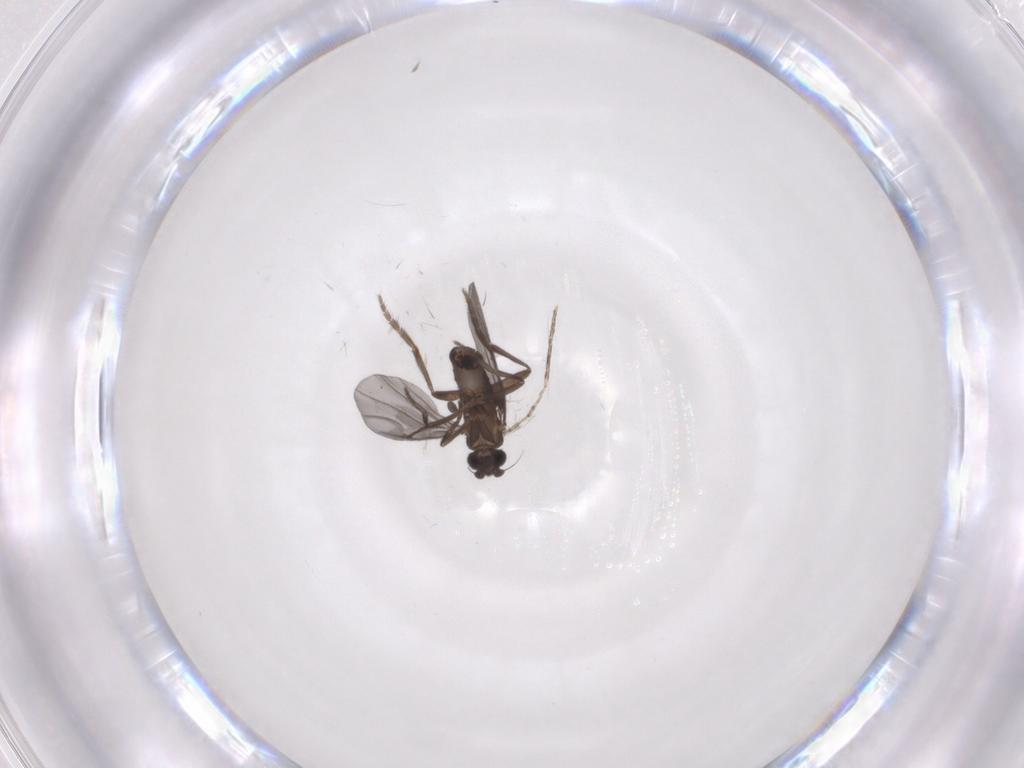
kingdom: Animalia
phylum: Arthropoda
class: Insecta
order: Diptera
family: Phoridae
